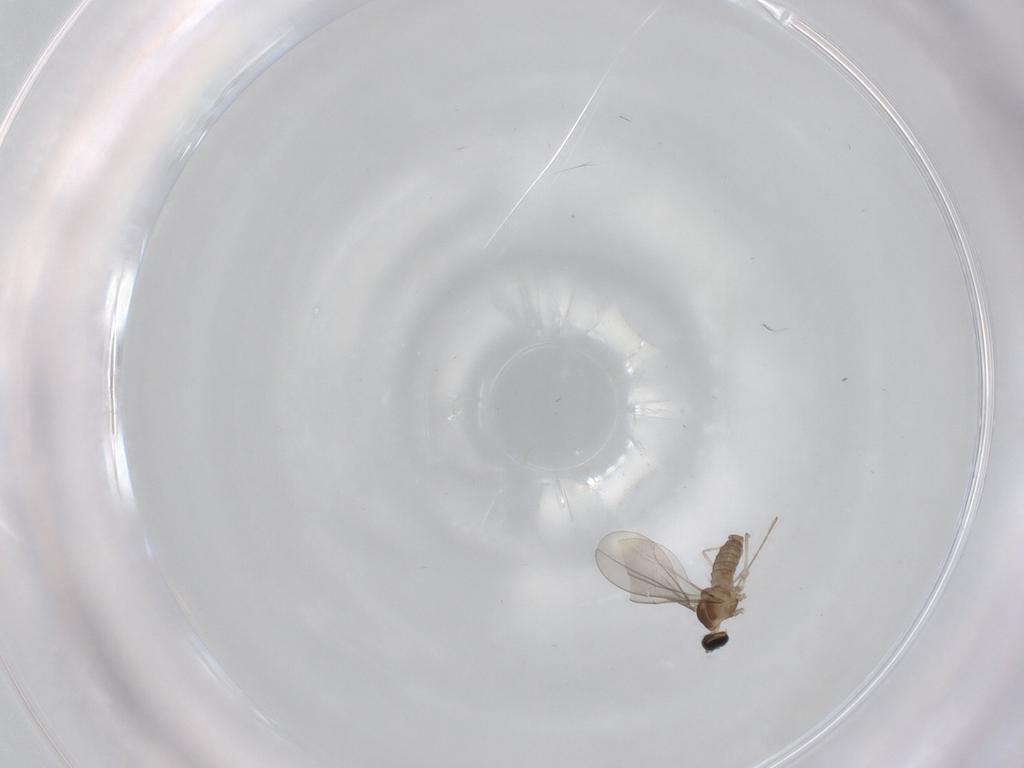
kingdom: Animalia
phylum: Arthropoda
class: Insecta
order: Diptera
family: Cecidomyiidae
